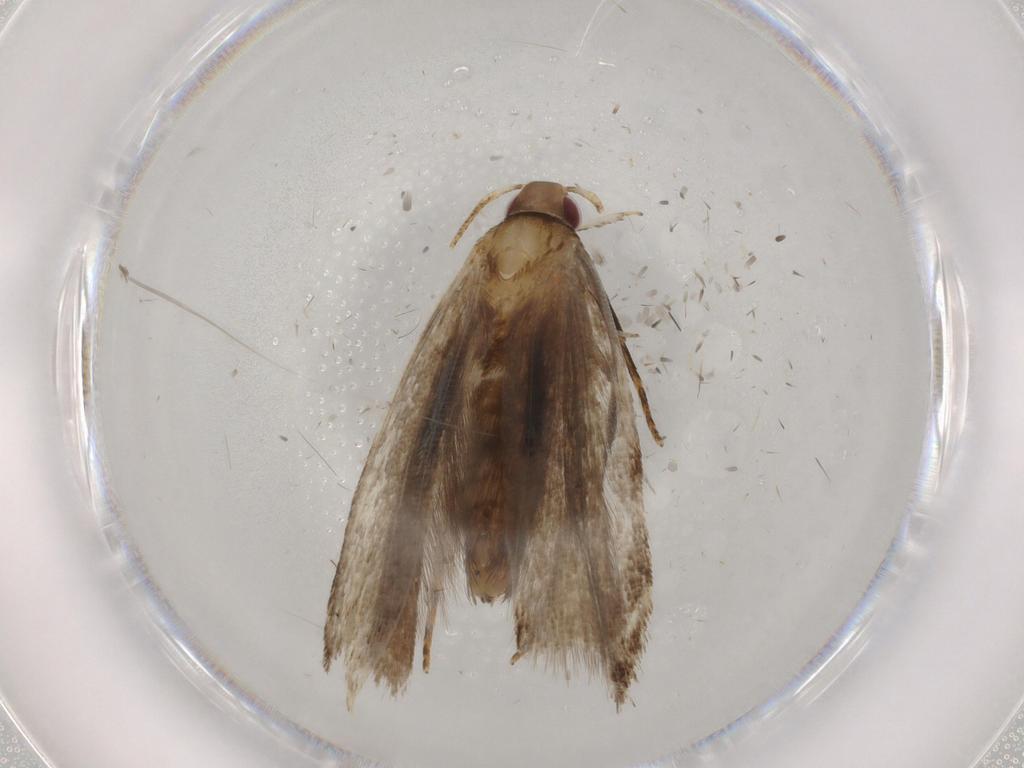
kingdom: Animalia
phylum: Arthropoda
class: Insecta
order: Lepidoptera
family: Gelechiidae
